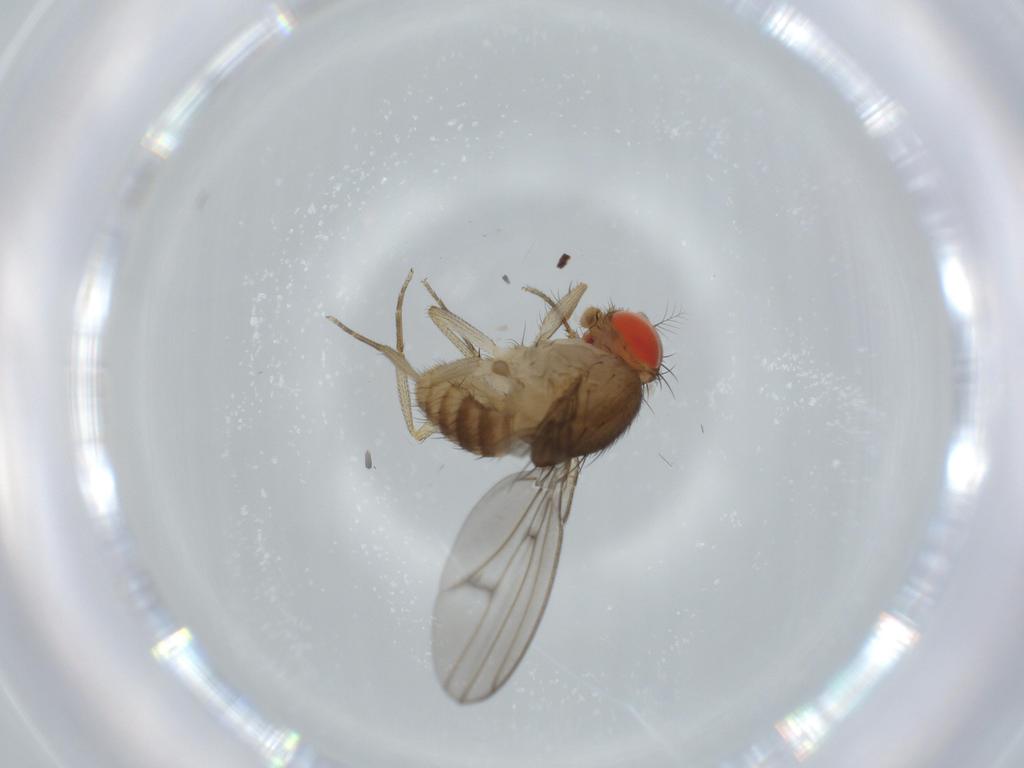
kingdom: Animalia
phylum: Arthropoda
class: Insecta
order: Diptera
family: Drosophilidae
